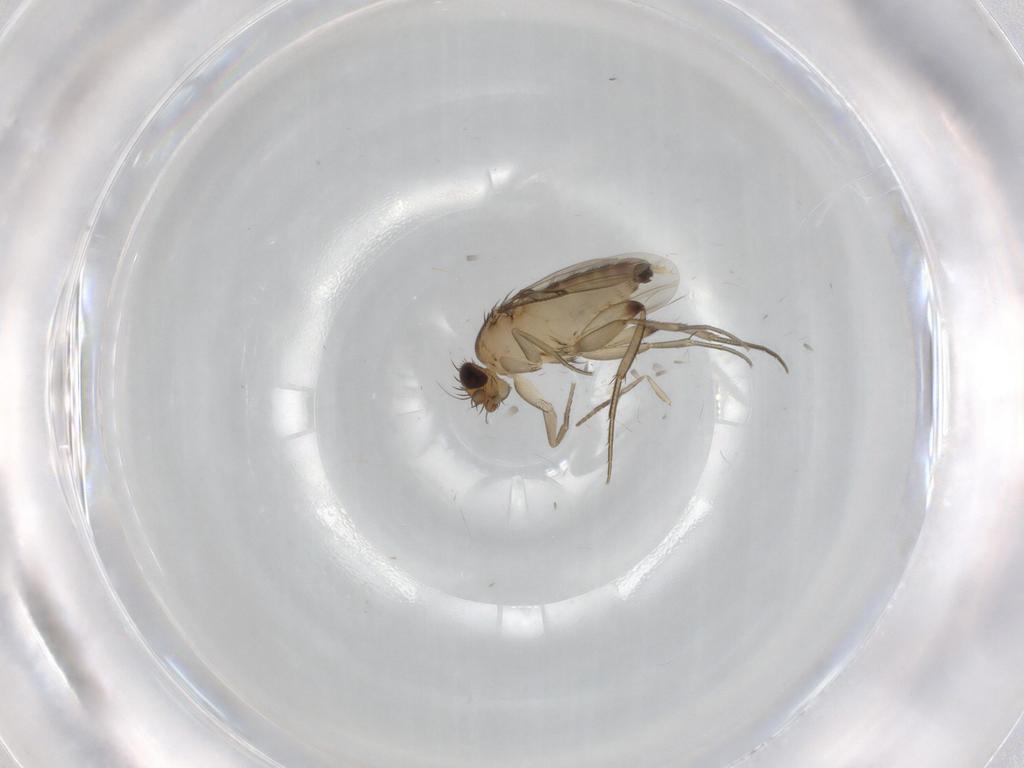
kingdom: Animalia
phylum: Arthropoda
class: Insecta
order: Diptera
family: Phoridae
